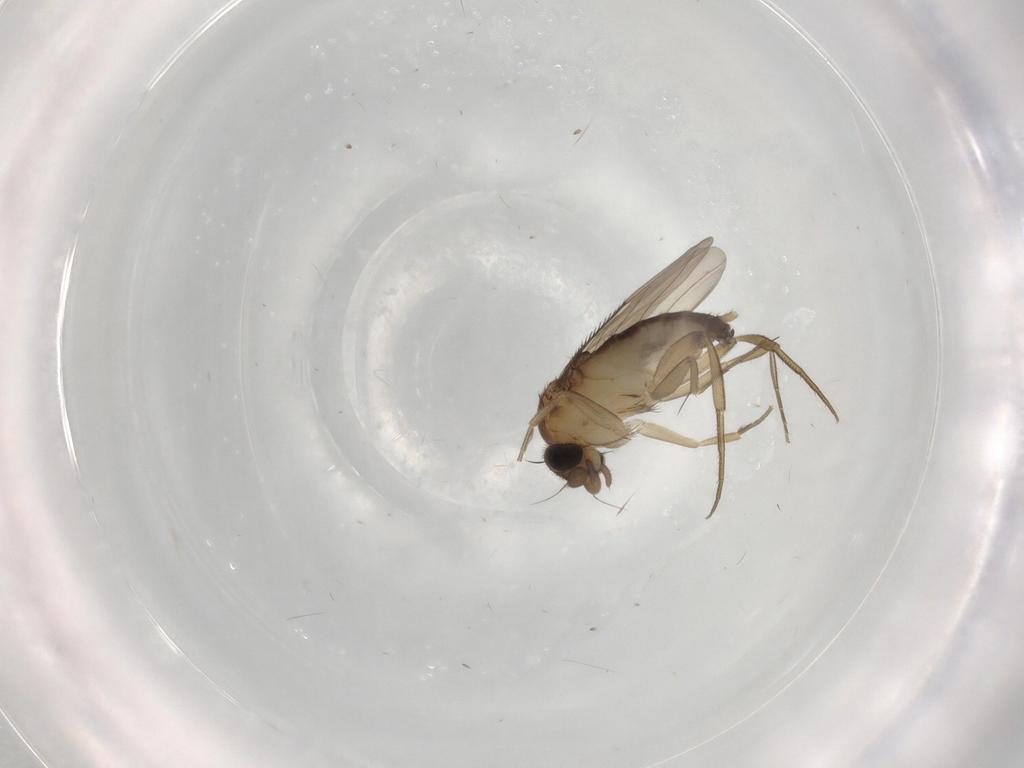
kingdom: Animalia
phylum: Arthropoda
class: Insecta
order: Diptera
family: Phoridae
